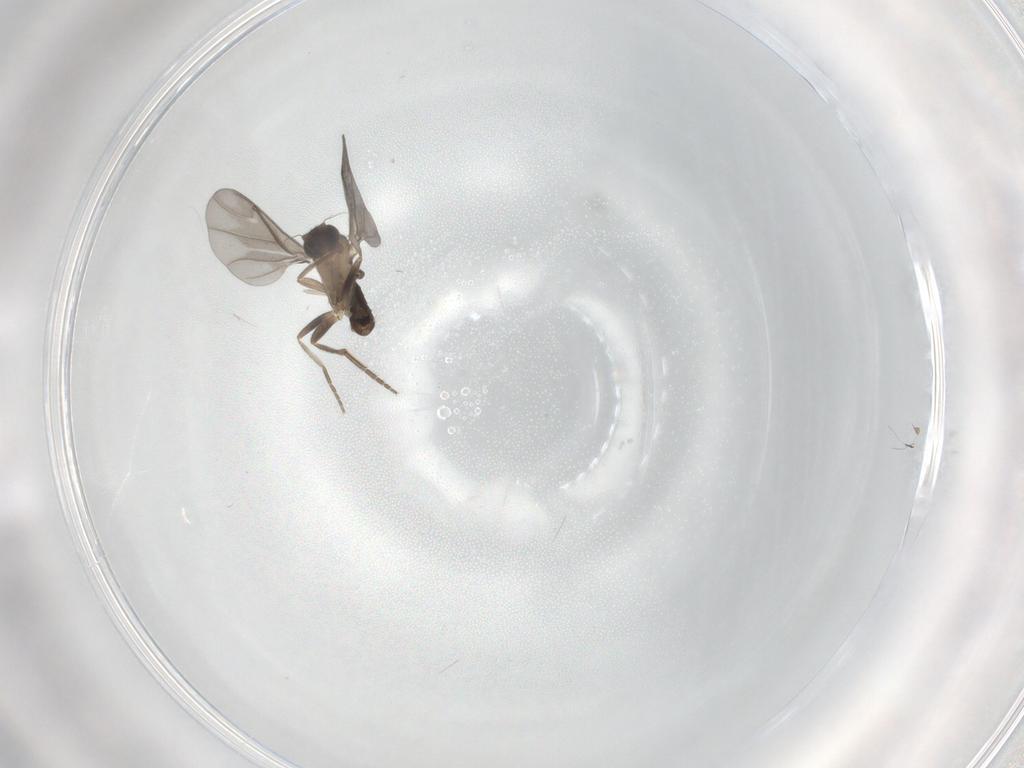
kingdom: Animalia
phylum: Arthropoda
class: Insecta
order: Diptera
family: Phoridae
